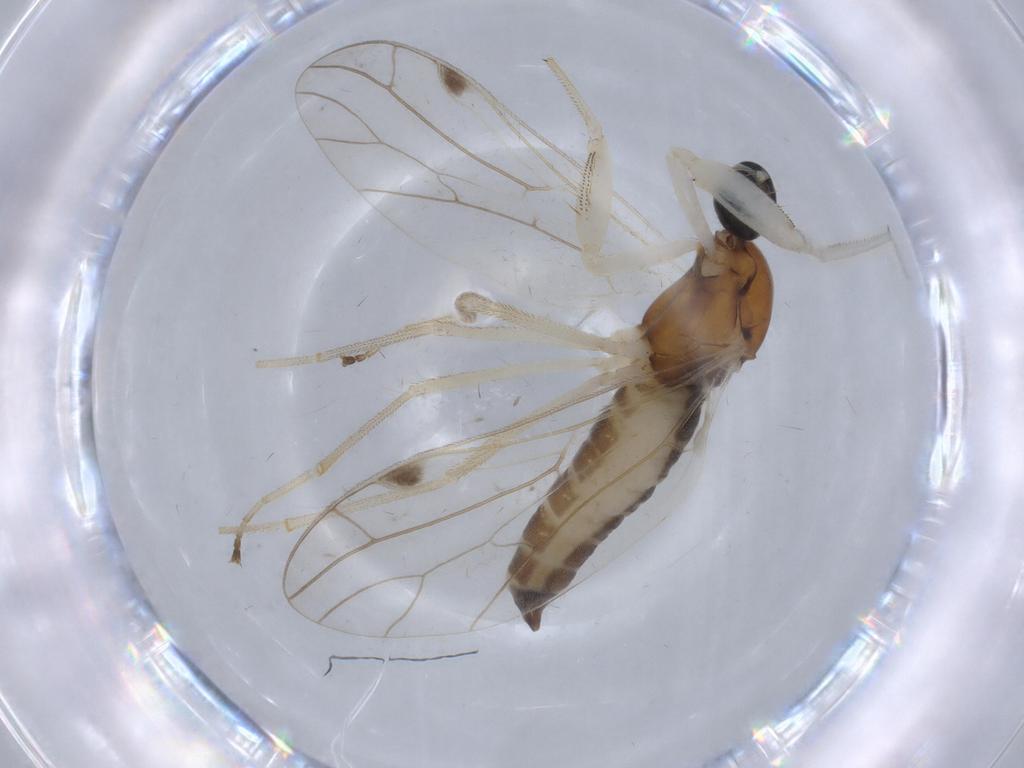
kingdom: Animalia
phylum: Arthropoda
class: Insecta
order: Diptera
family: Empididae
